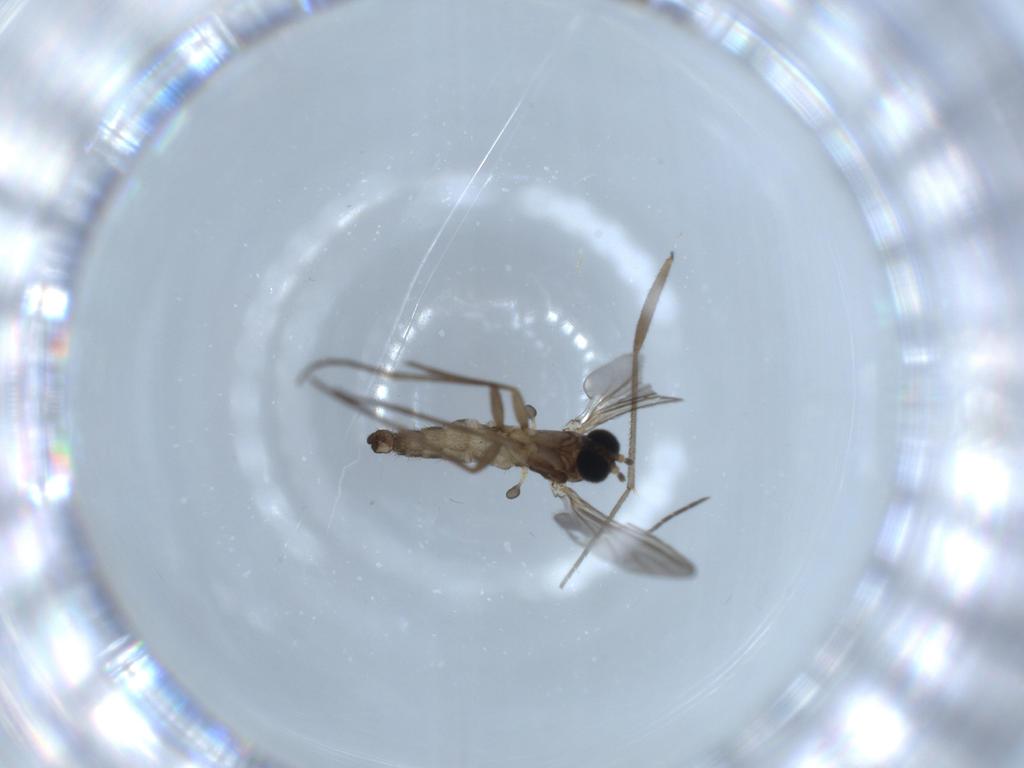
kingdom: Animalia
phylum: Arthropoda
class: Insecta
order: Diptera
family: Sciaridae
